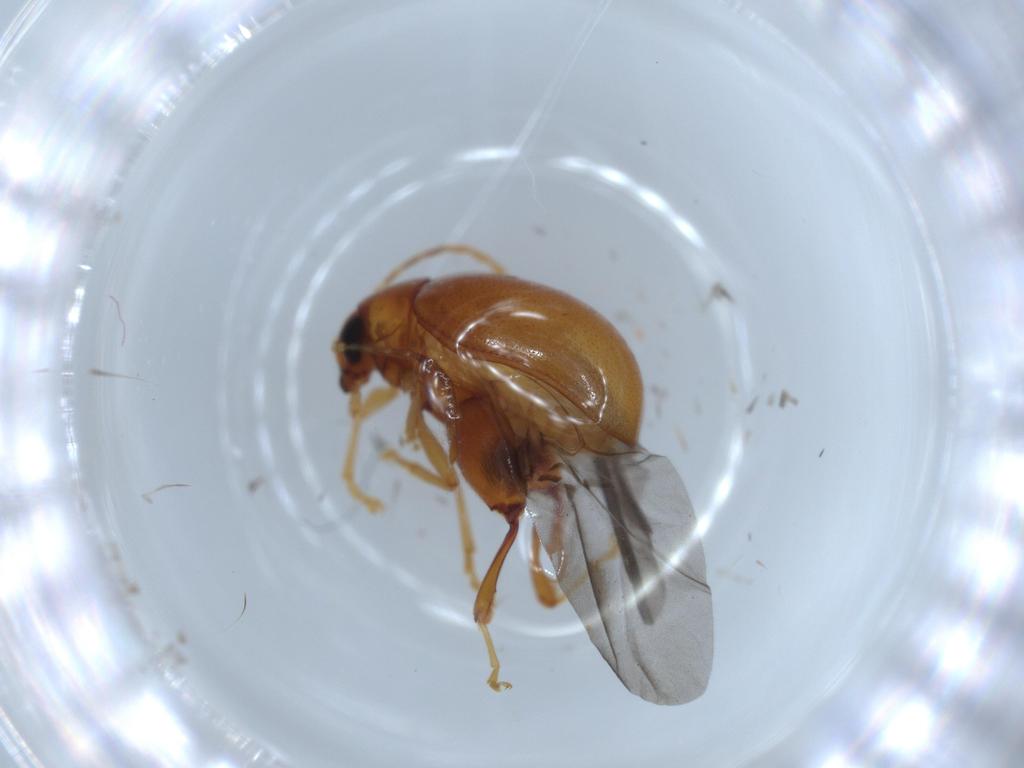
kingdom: Animalia
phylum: Arthropoda
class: Insecta
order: Coleoptera
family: Chrysomelidae
